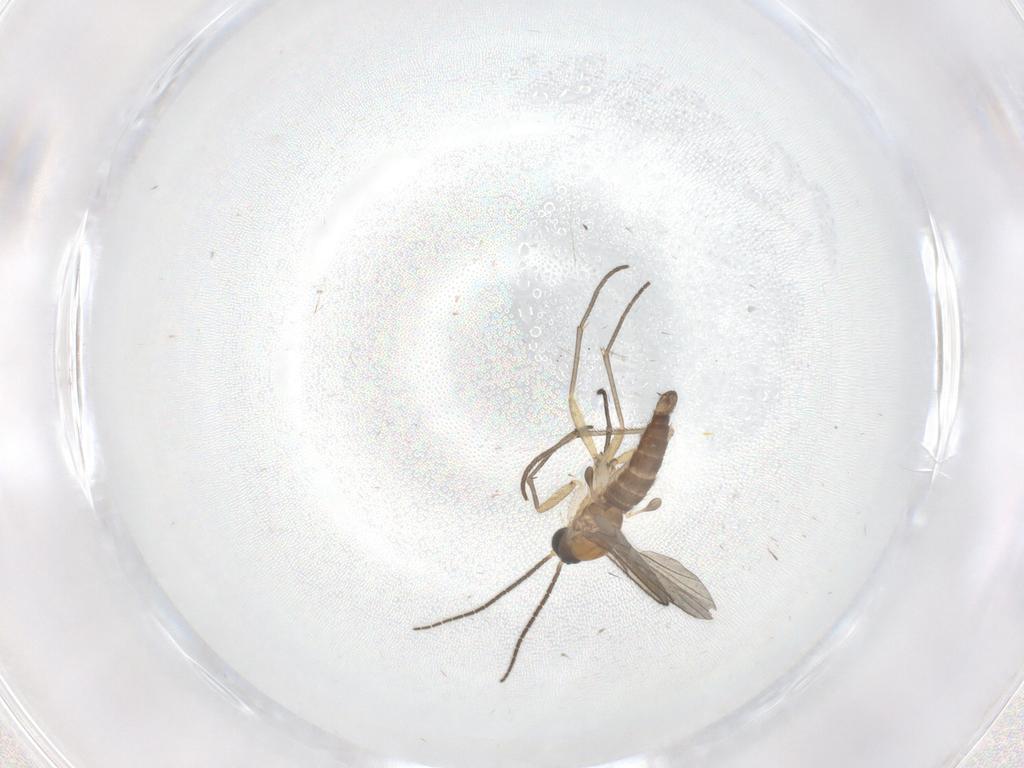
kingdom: Animalia
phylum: Arthropoda
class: Insecta
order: Diptera
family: Sciaridae
